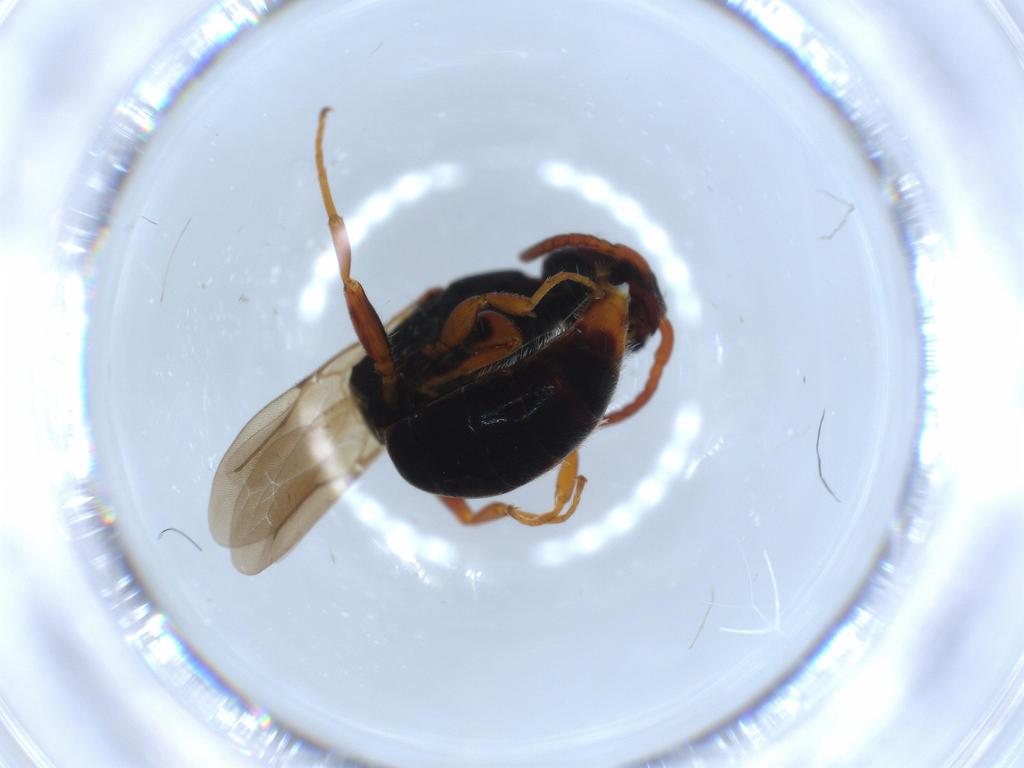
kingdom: Animalia
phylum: Arthropoda
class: Insecta
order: Hymenoptera
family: Bethylidae
